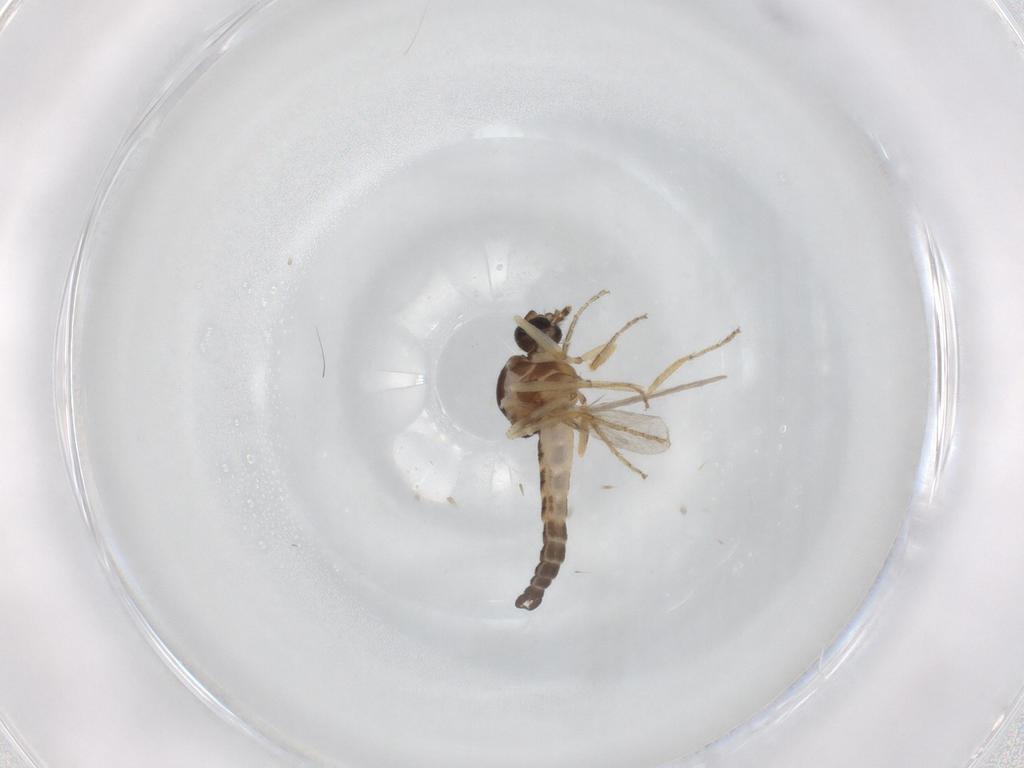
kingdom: Animalia
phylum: Arthropoda
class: Insecta
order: Diptera
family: Ceratopogonidae
